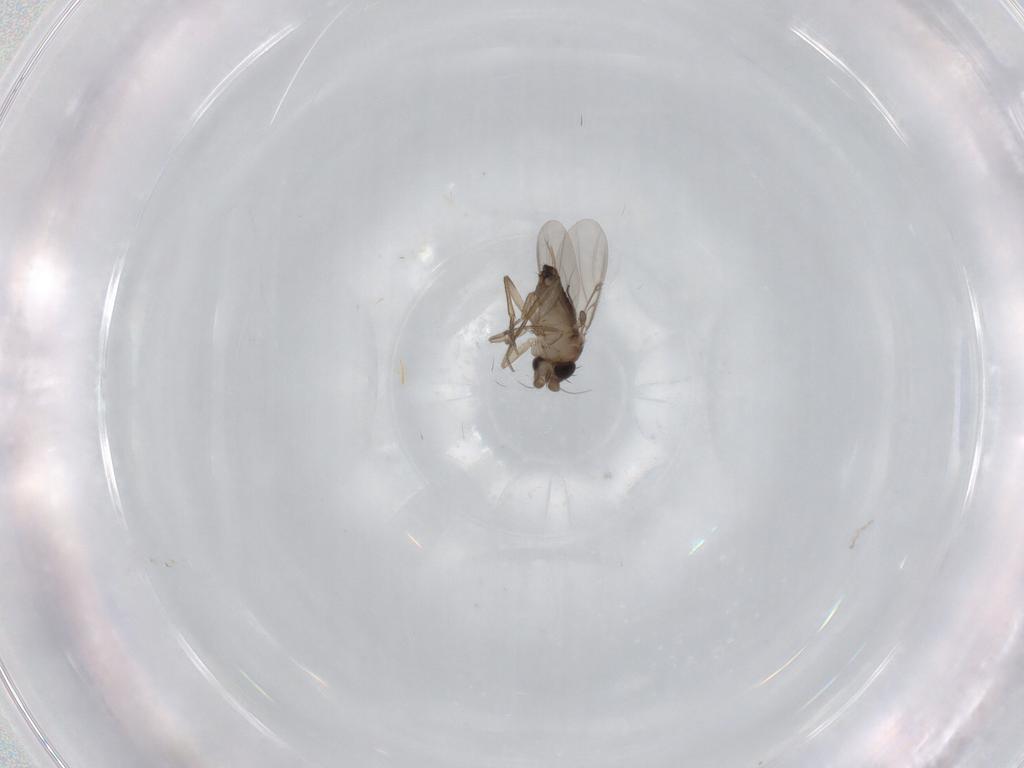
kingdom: Animalia
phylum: Arthropoda
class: Insecta
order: Diptera
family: Phoridae
